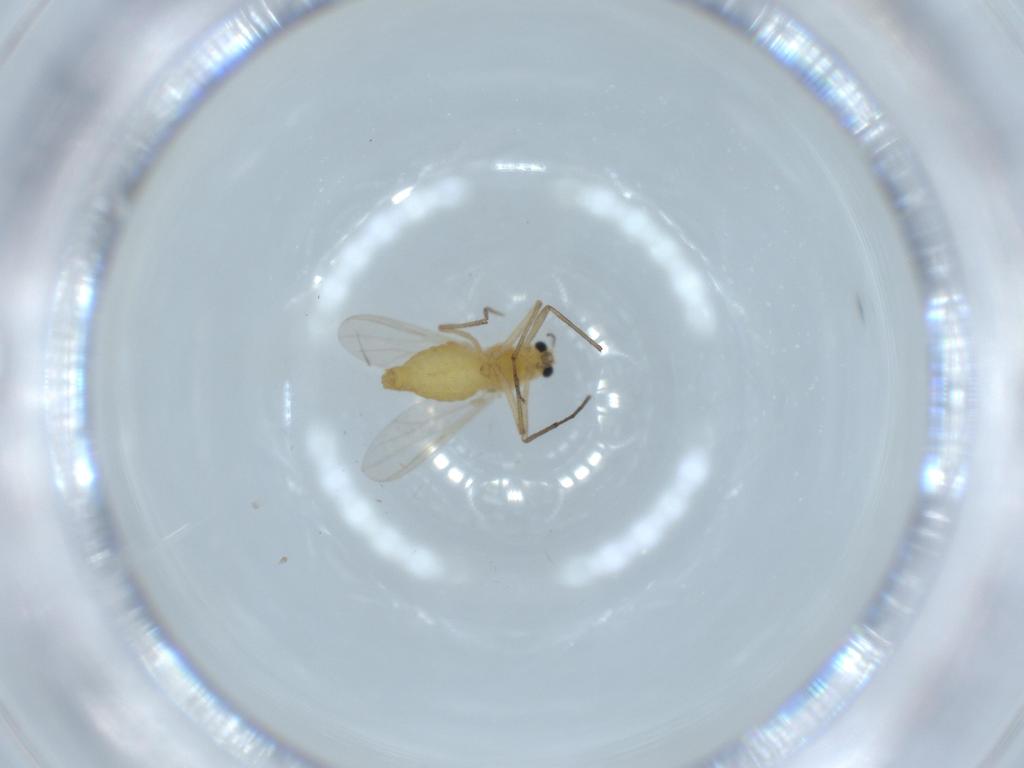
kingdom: Animalia
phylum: Arthropoda
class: Insecta
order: Diptera
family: Chironomidae
